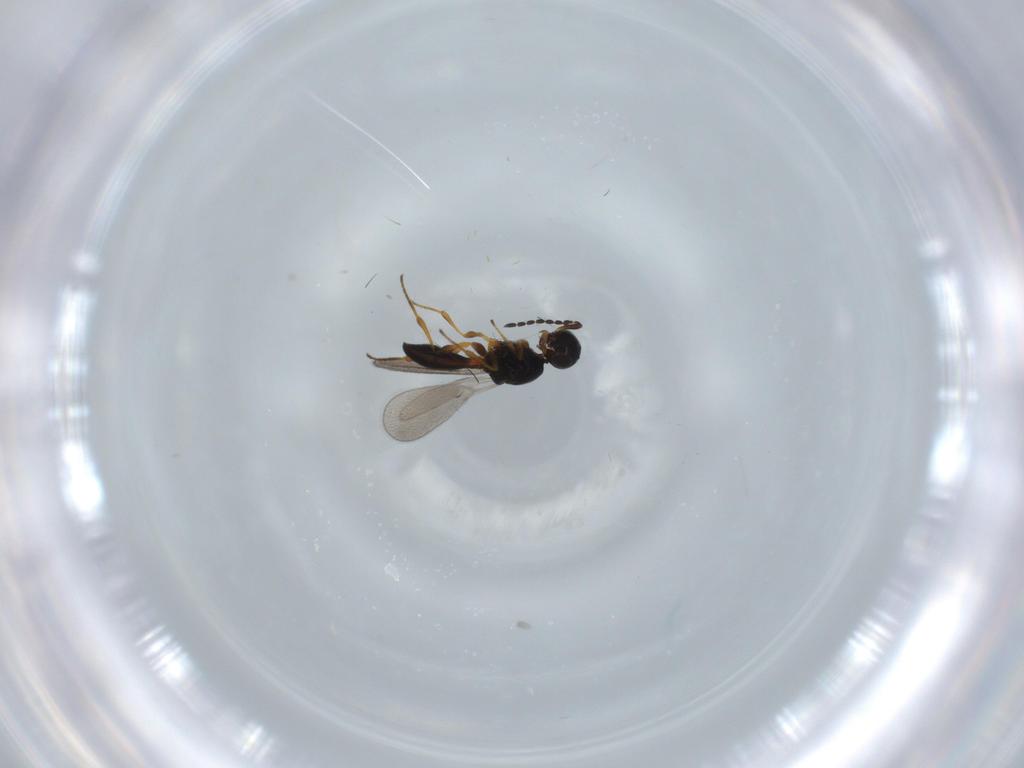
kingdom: Animalia
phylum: Arthropoda
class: Insecta
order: Hymenoptera
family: Platygastridae
